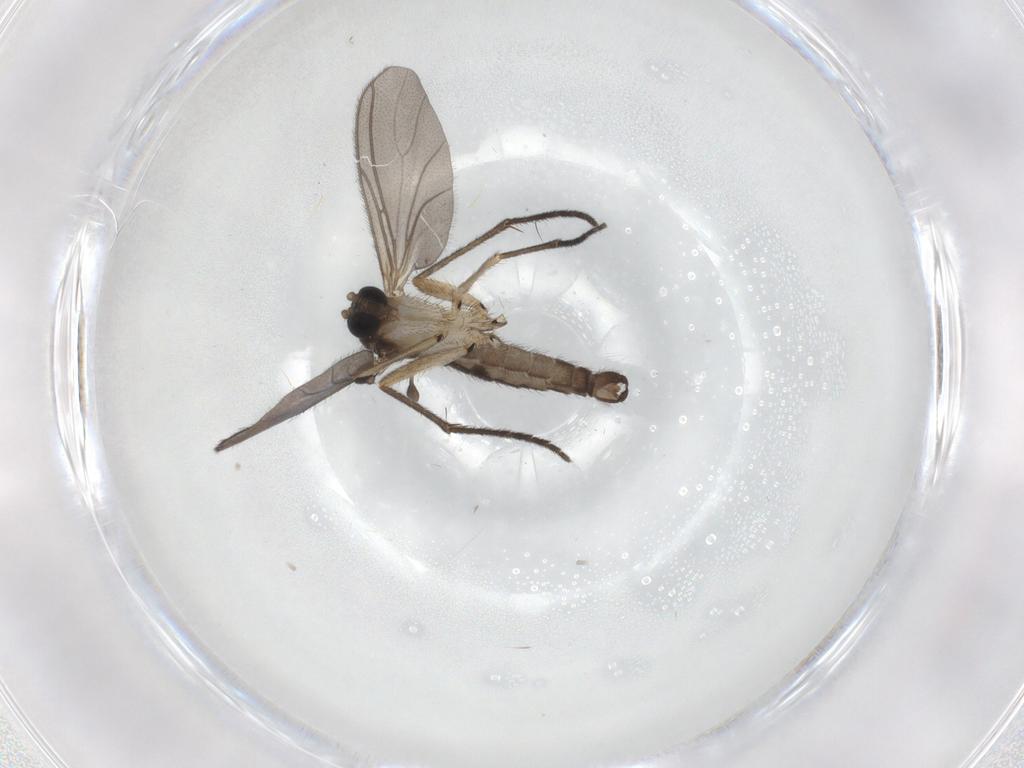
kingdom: Animalia
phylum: Arthropoda
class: Insecta
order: Diptera
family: Sciaridae
